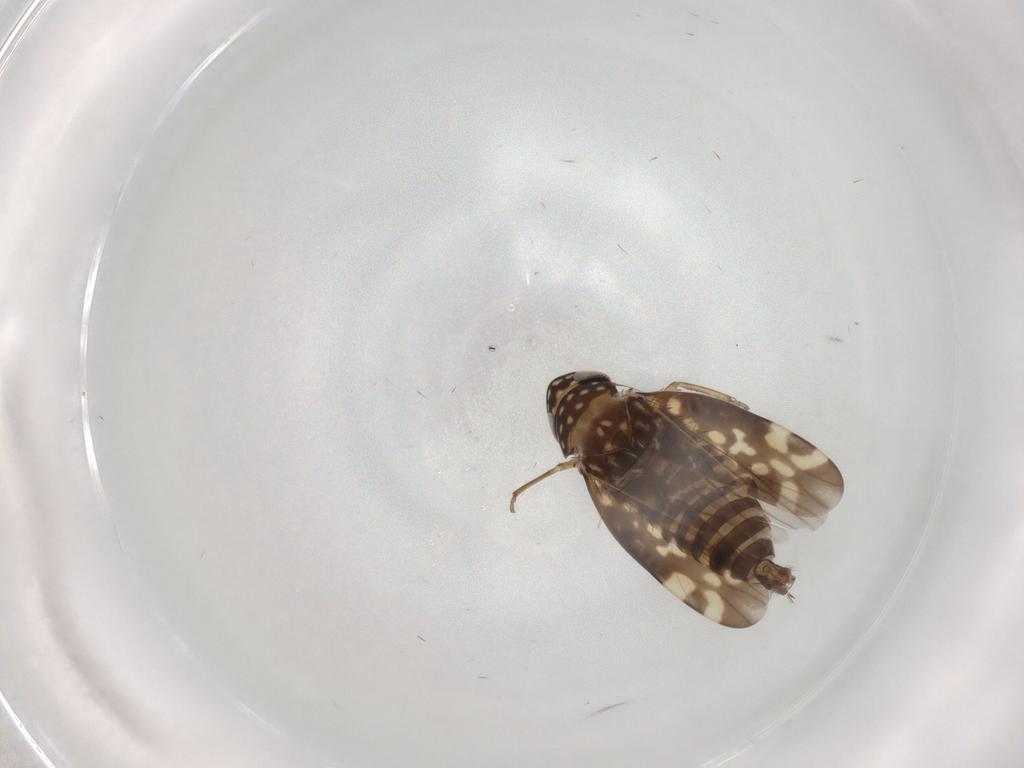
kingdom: Animalia
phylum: Arthropoda
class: Insecta
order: Hemiptera
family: Cicadellidae
